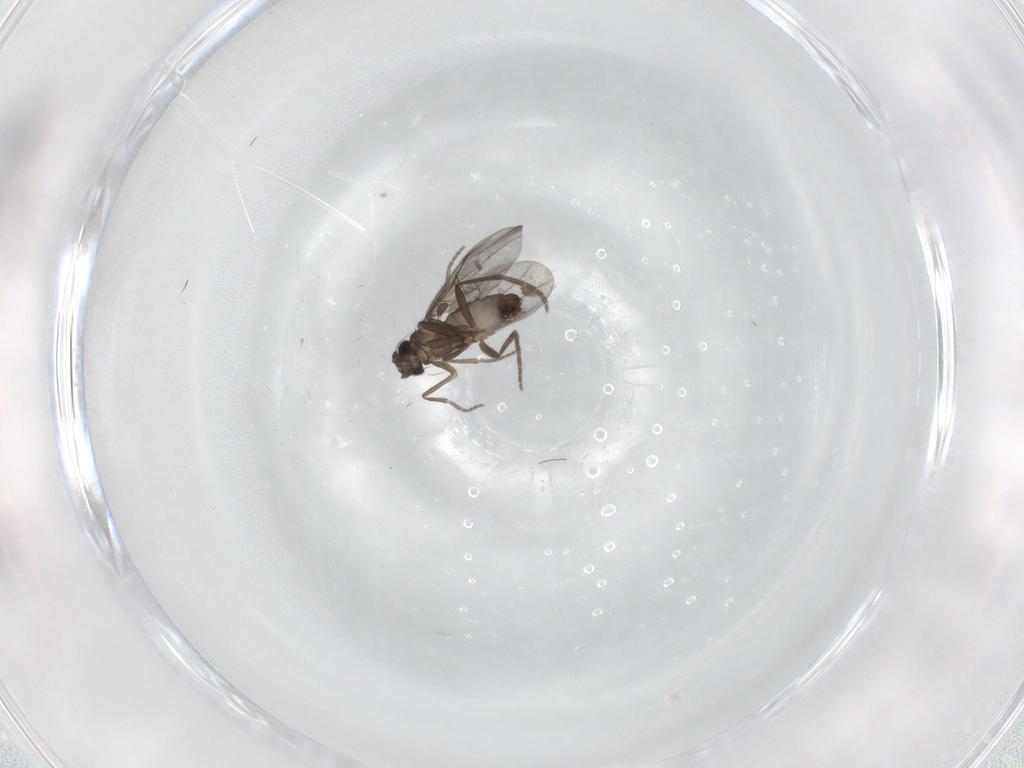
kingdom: Animalia
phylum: Arthropoda
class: Insecta
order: Diptera
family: Phoridae
